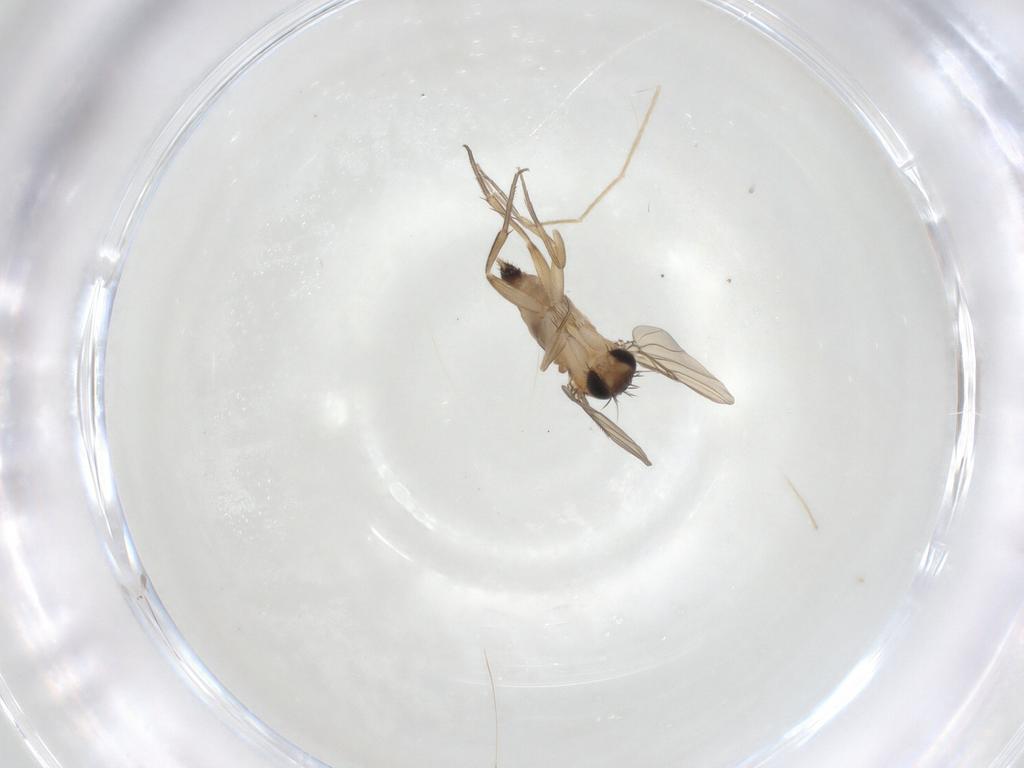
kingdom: Animalia
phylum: Arthropoda
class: Insecta
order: Diptera
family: Phoridae
